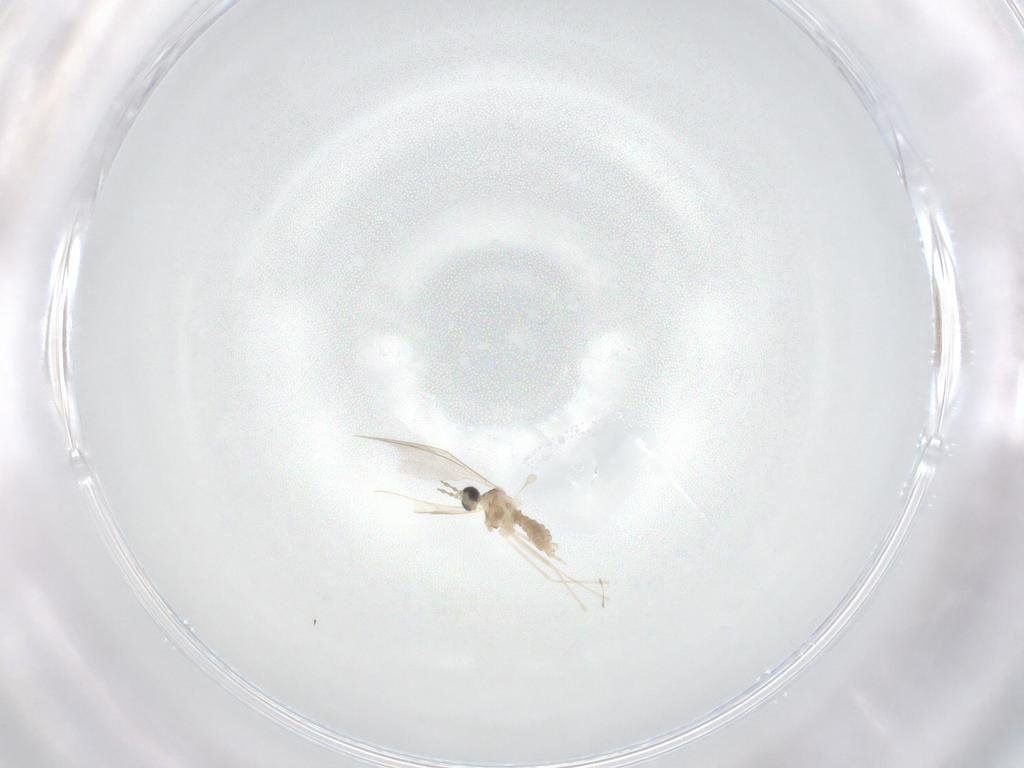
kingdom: Animalia
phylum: Arthropoda
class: Insecta
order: Diptera
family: Cecidomyiidae
